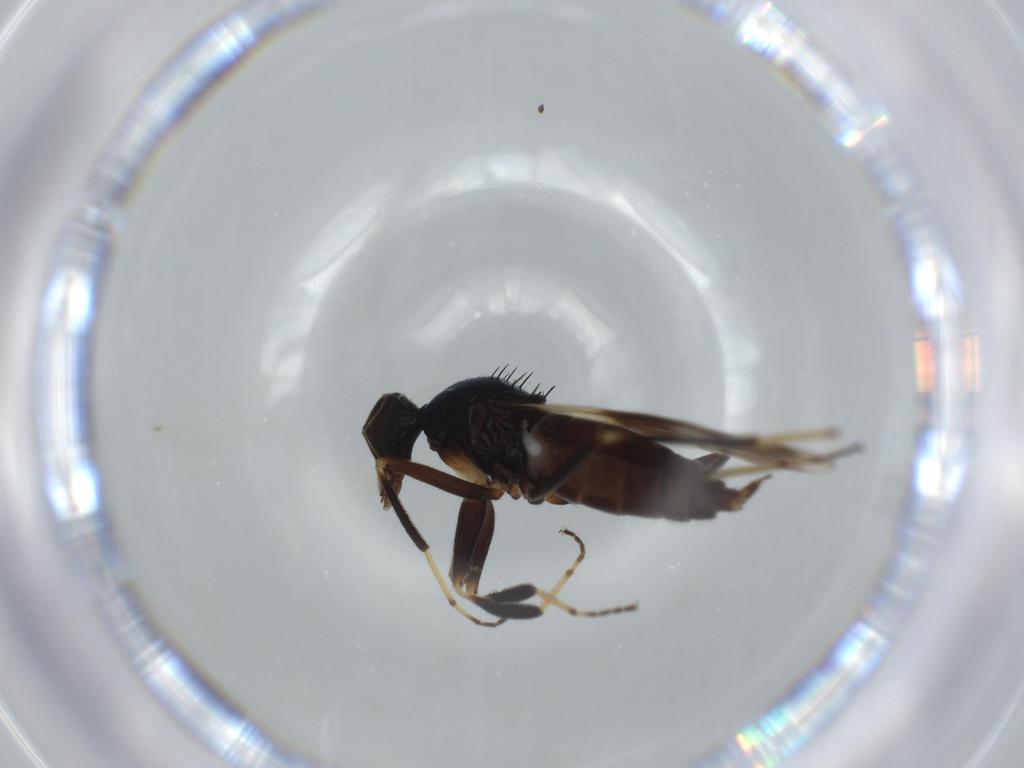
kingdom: Animalia
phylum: Arthropoda
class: Insecta
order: Diptera
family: Hybotidae
